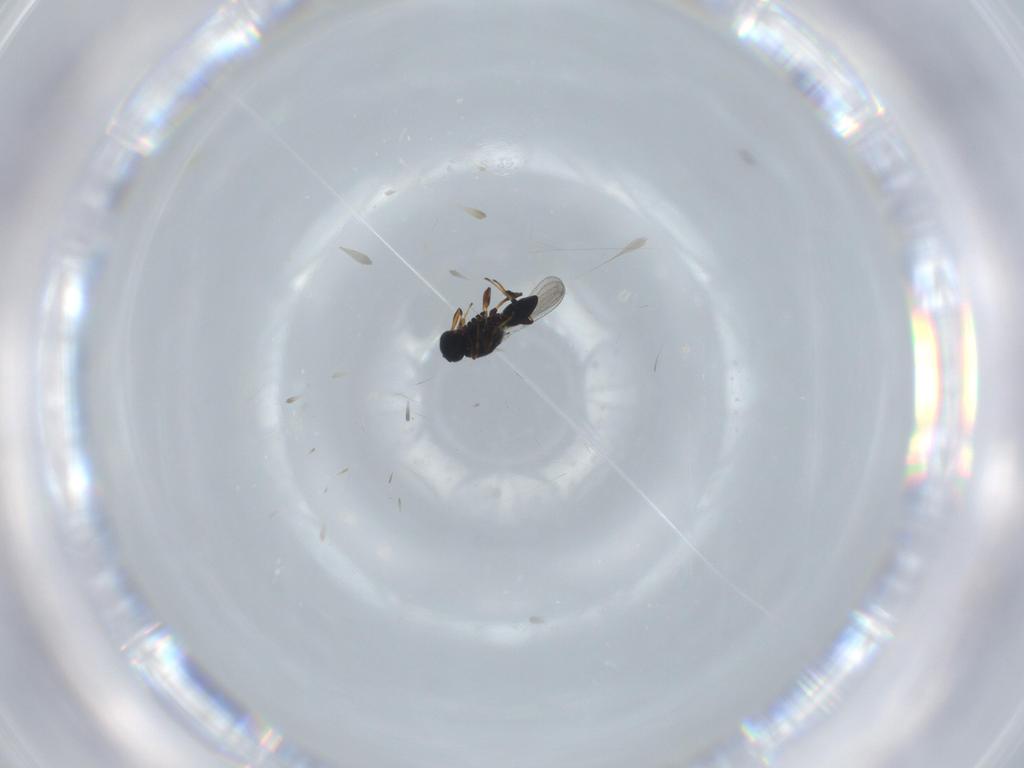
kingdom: Animalia
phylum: Arthropoda
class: Insecta
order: Hymenoptera
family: Platygastridae
